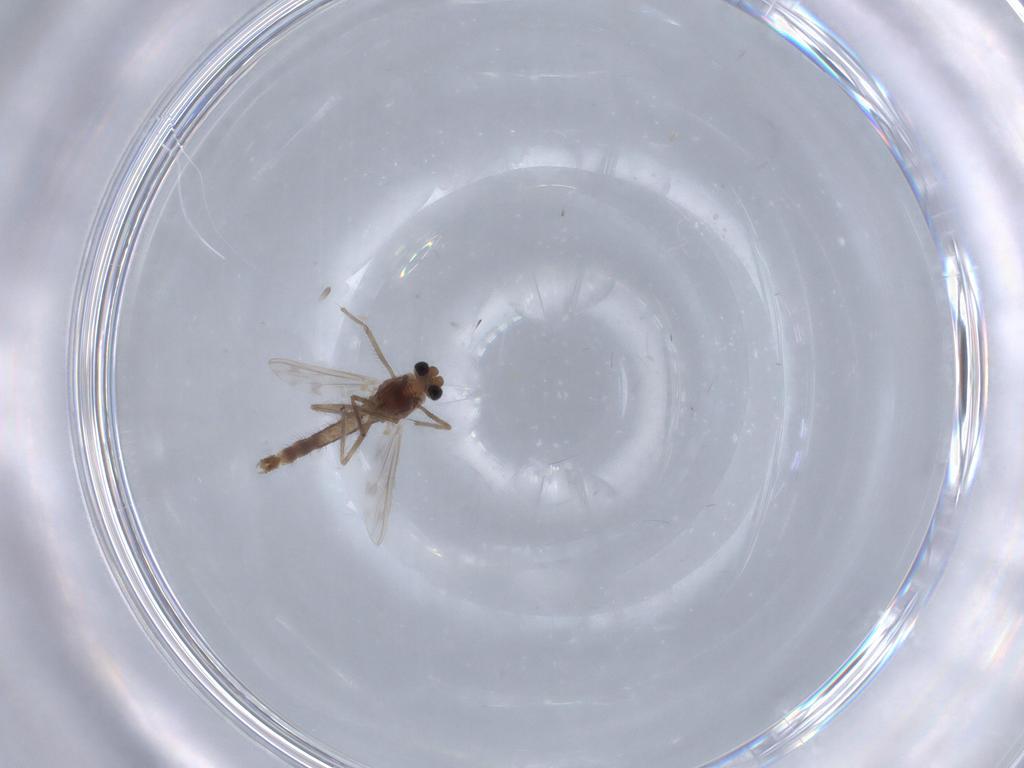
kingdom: Animalia
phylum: Arthropoda
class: Insecta
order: Diptera
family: Chironomidae
